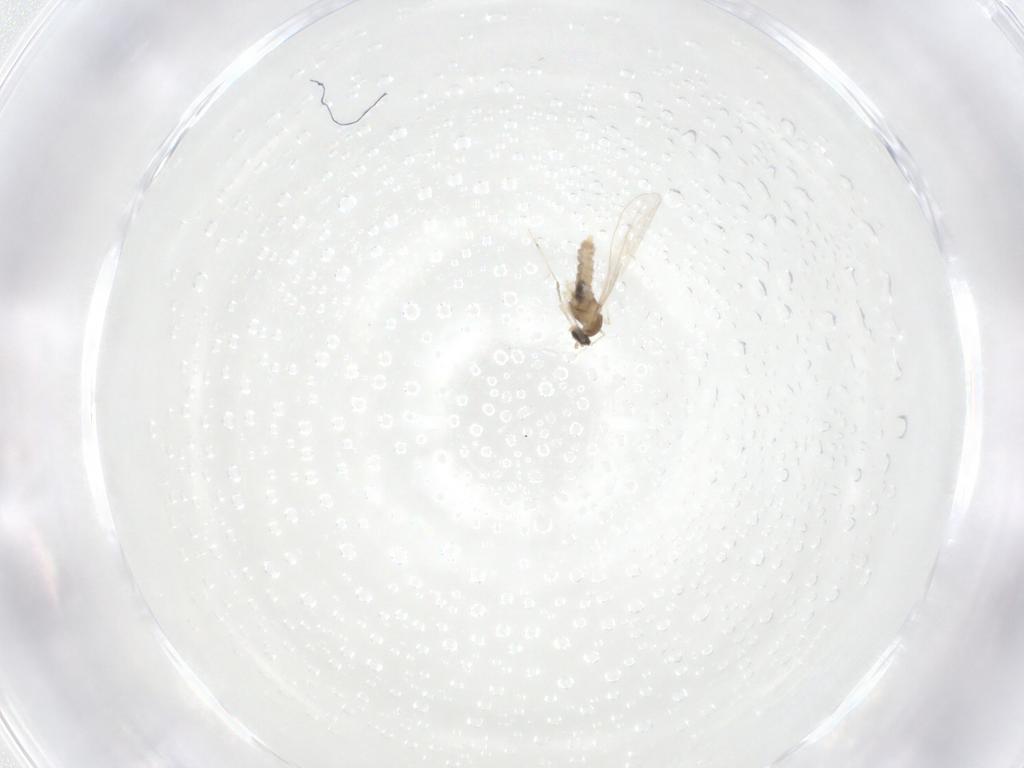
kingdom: Animalia
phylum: Arthropoda
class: Insecta
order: Diptera
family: Cecidomyiidae
